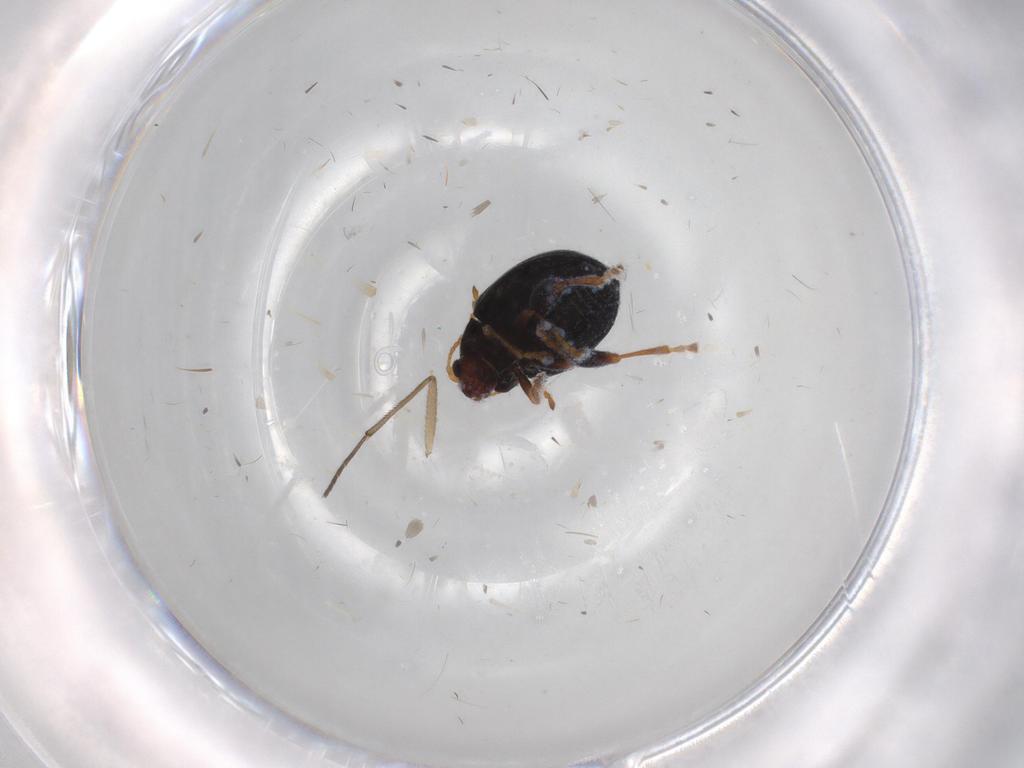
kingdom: Animalia
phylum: Arthropoda
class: Insecta
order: Coleoptera
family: Chrysomelidae
